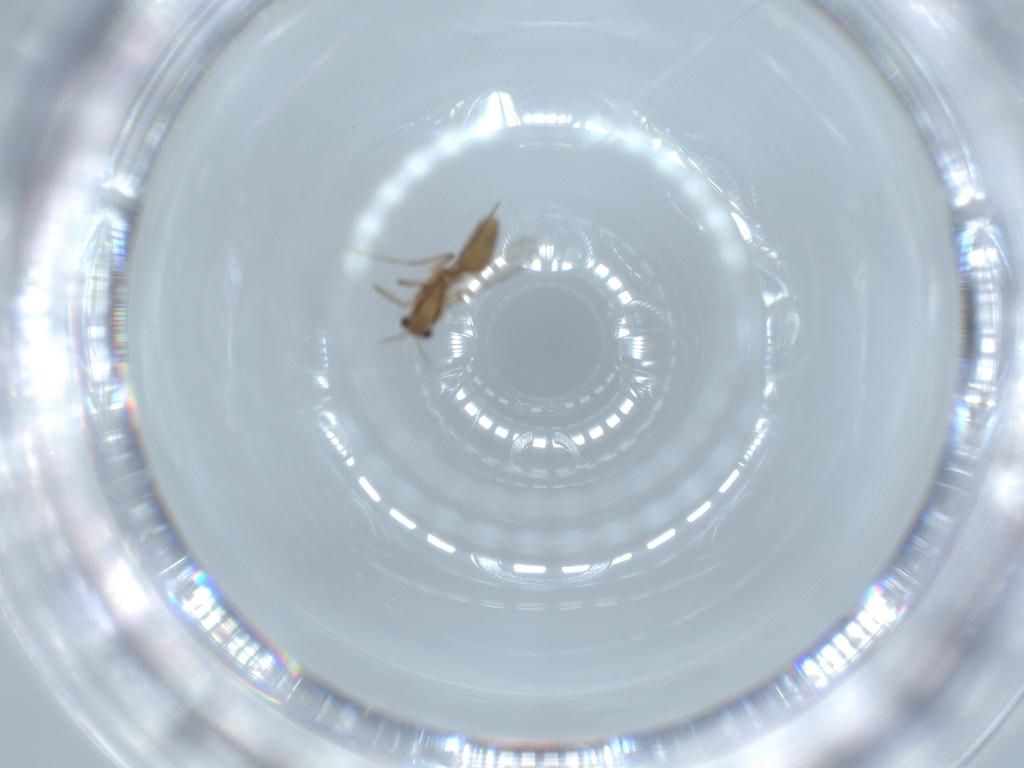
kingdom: Animalia
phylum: Arthropoda
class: Insecta
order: Diptera
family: Chironomidae
